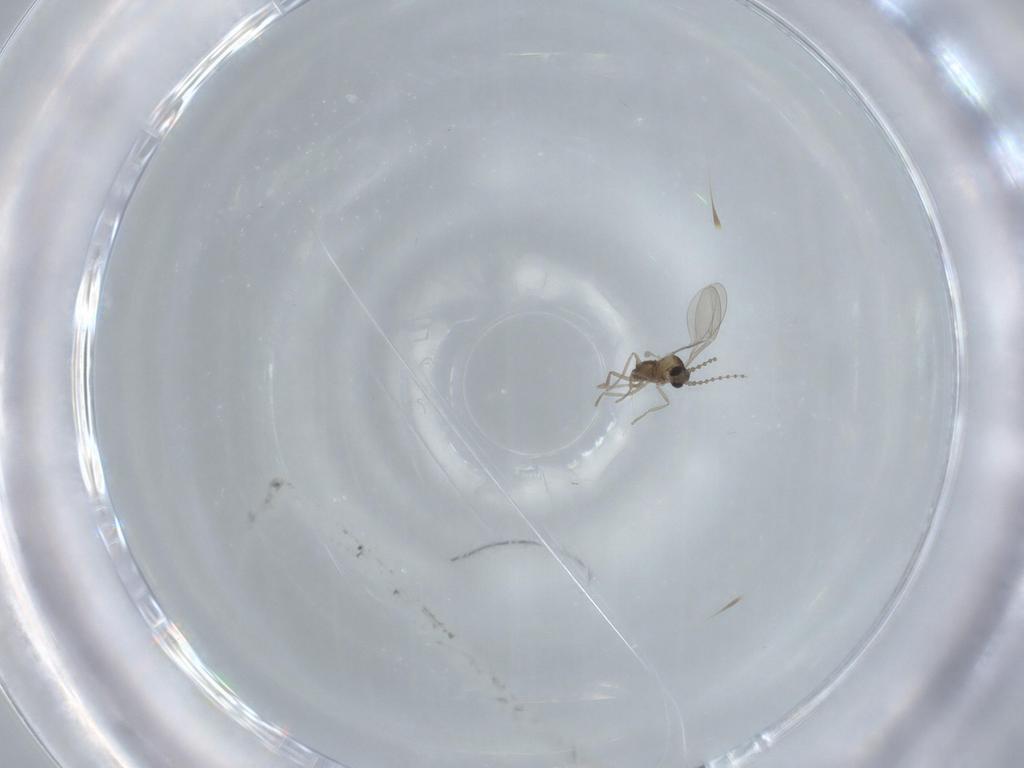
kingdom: Animalia
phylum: Arthropoda
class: Insecta
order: Diptera
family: Cecidomyiidae
